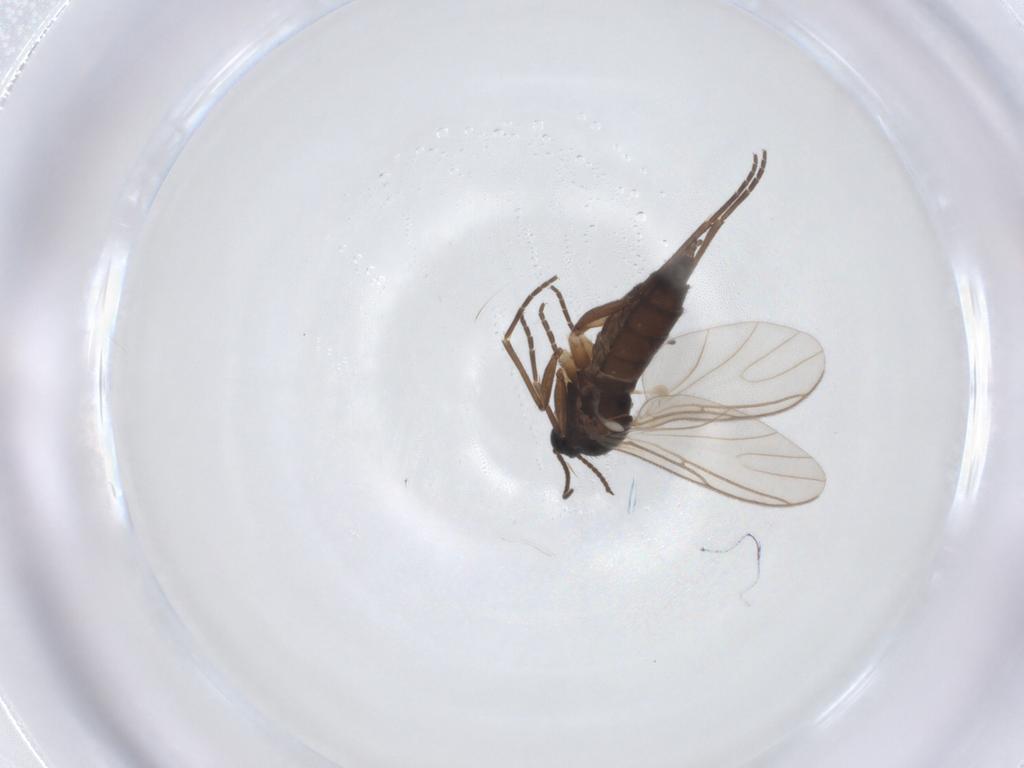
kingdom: Animalia
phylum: Arthropoda
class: Insecta
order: Diptera
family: Sciaridae
